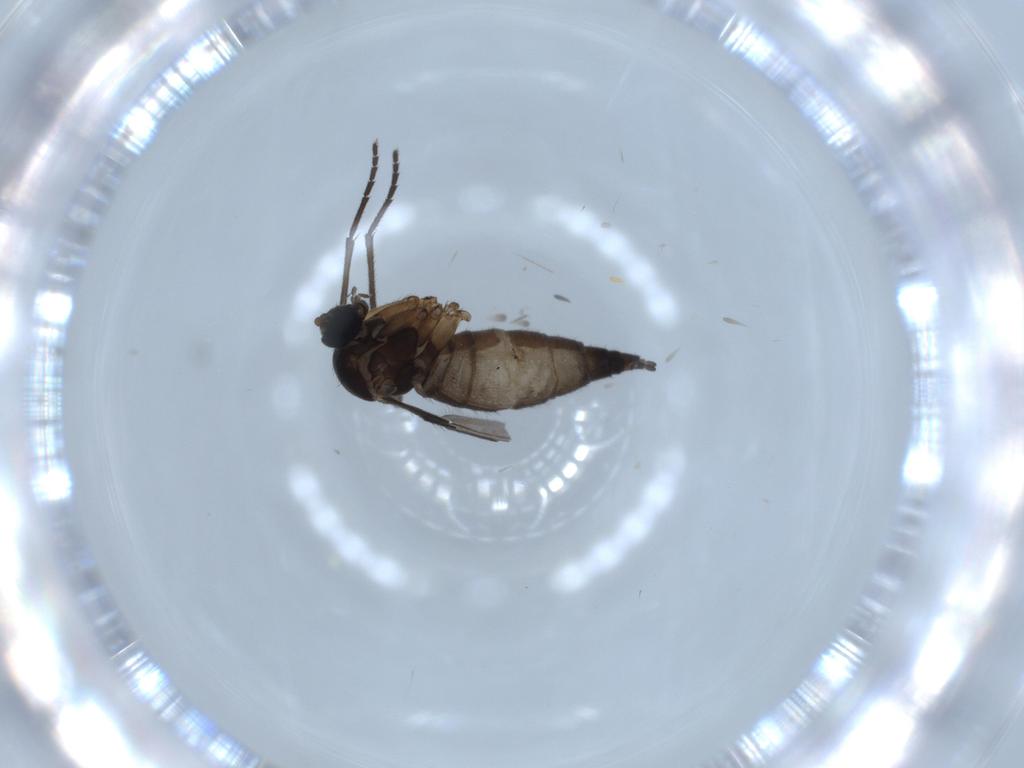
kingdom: Animalia
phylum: Arthropoda
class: Insecta
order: Diptera
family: Sciaridae
